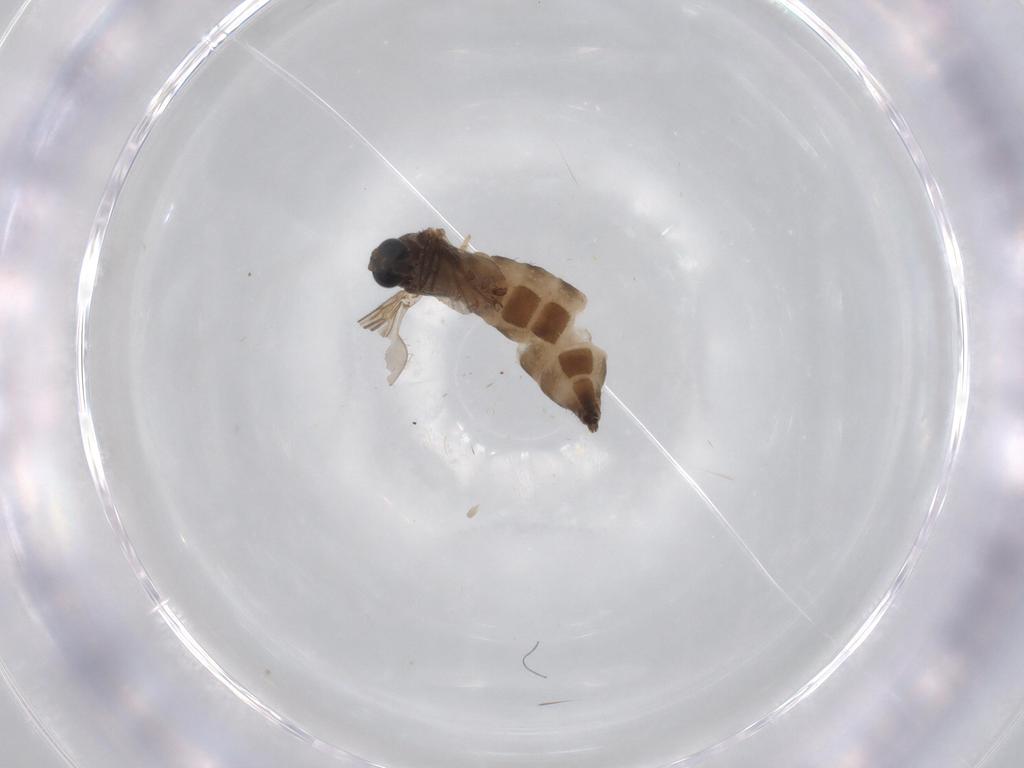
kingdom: Animalia
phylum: Arthropoda
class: Insecta
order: Diptera
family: Sciaridae
